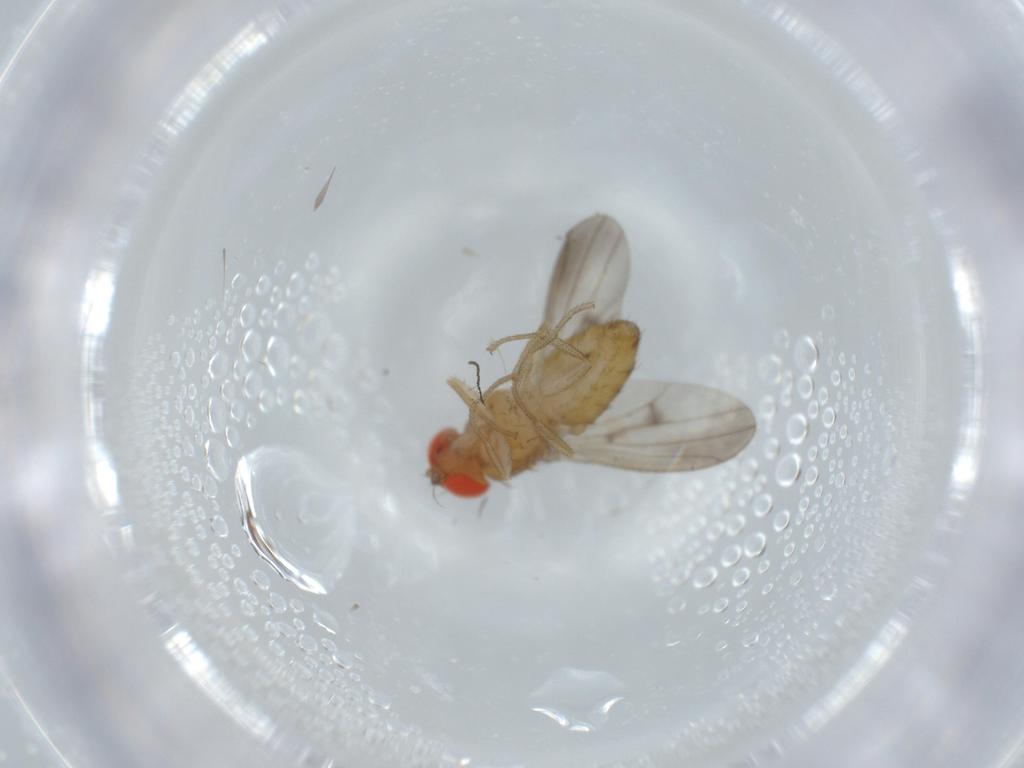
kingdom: Animalia
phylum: Arthropoda
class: Insecta
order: Diptera
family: Drosophilidae
